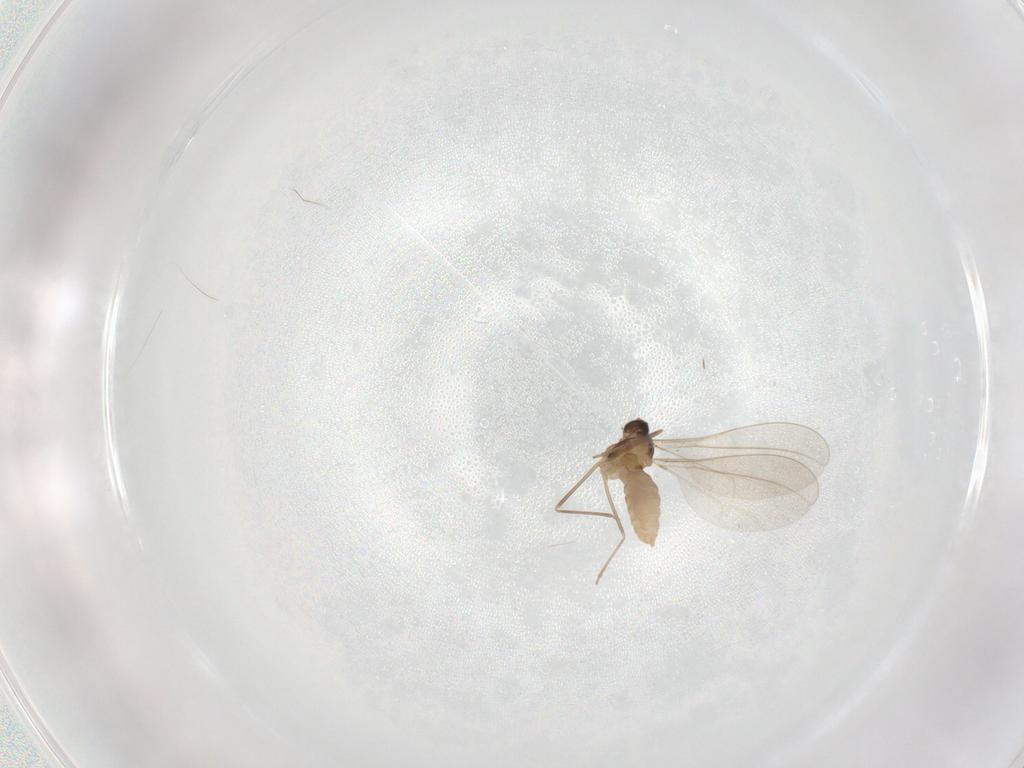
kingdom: Animalia
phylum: Arthropoda
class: Insecta
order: Diptera
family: Cecidomyiidae
